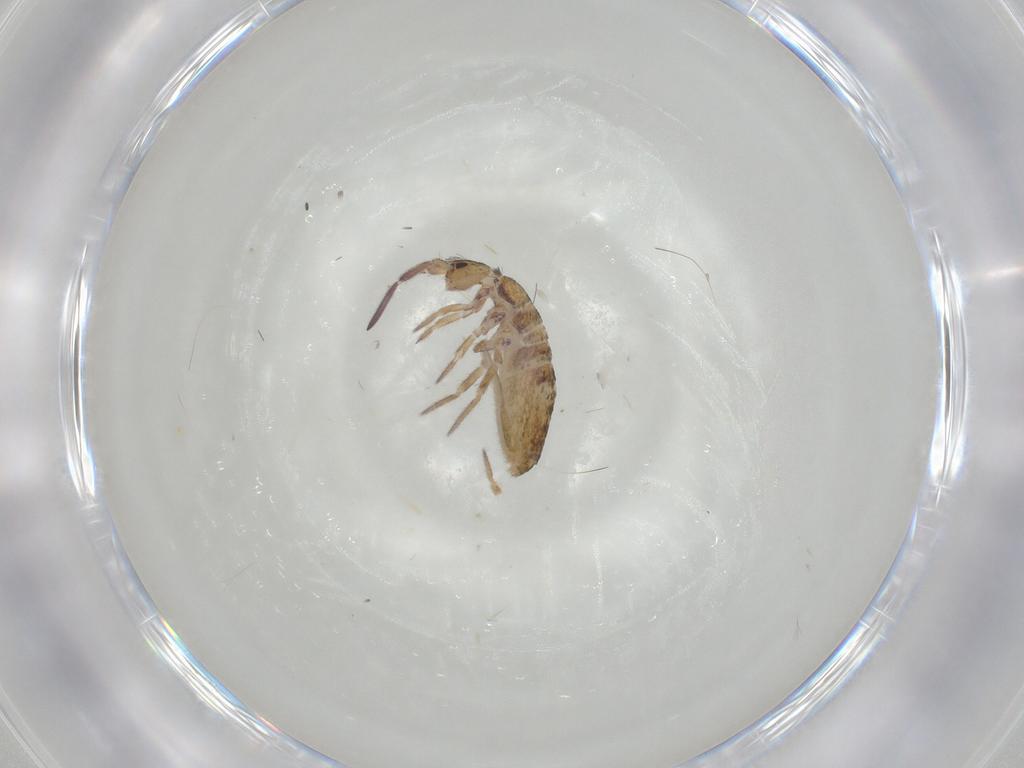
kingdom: Animalia
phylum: Arthropoda
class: Collembola
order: Entomobryomorpha
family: Entomobryidae
